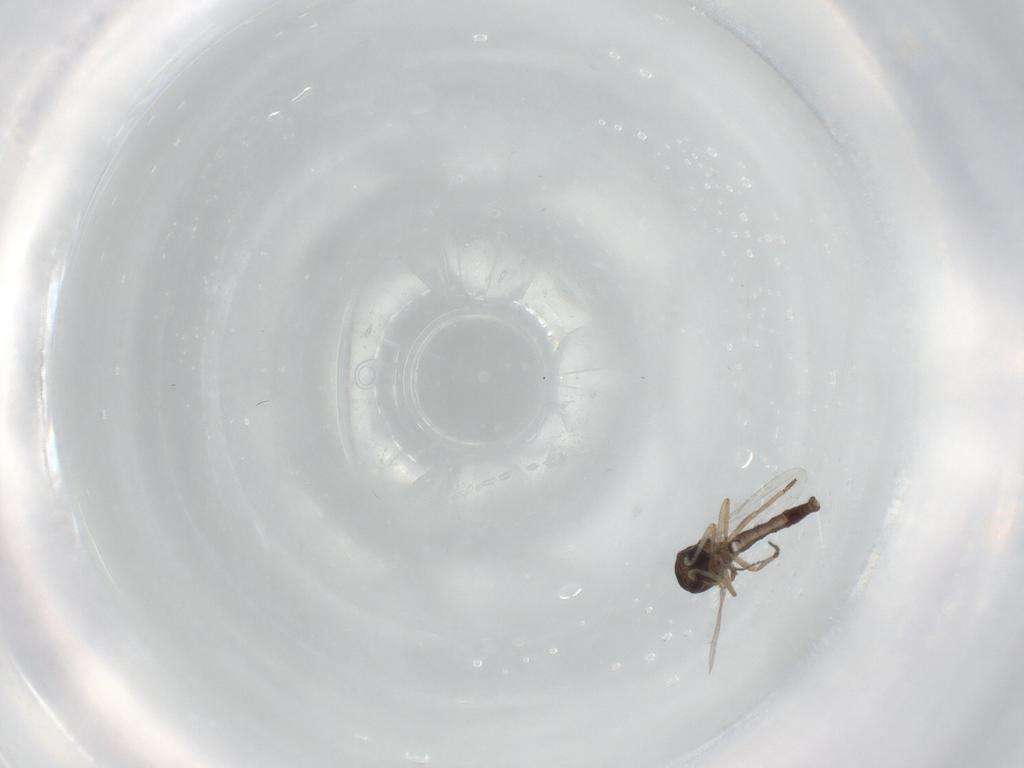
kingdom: Animalia
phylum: Arthropoda
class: Insecta
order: Diptera
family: Ceratopogonidae
